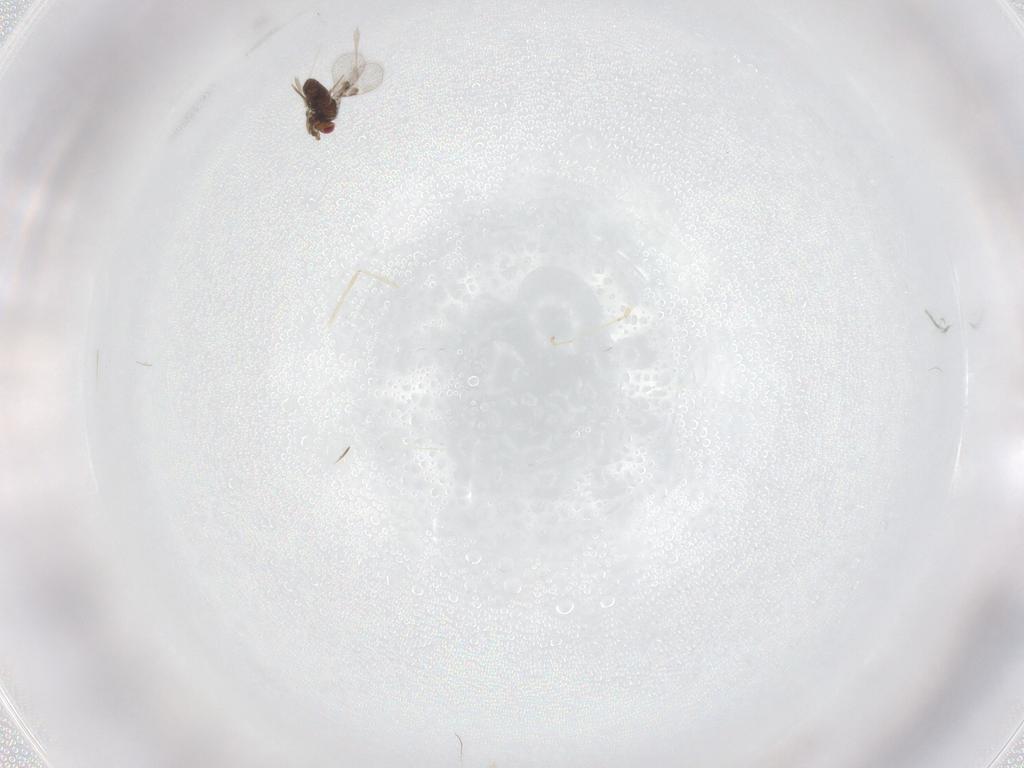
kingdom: Animalia
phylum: Arthropoda
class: Insecta
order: Diptera
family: Cecidomyiidae
